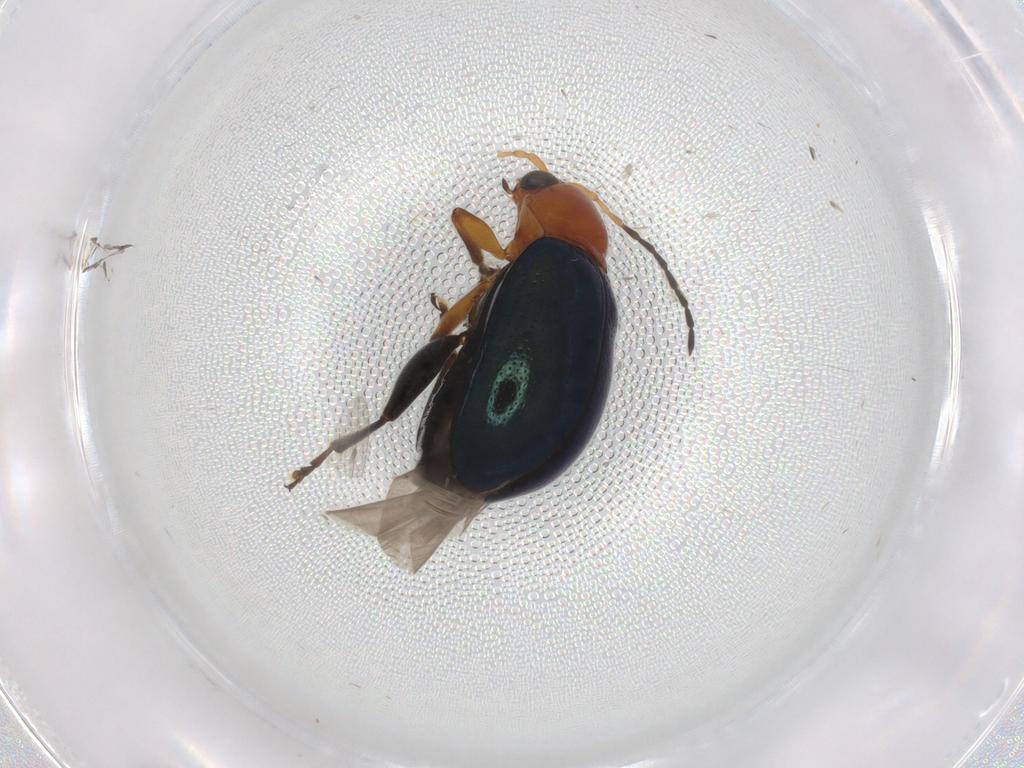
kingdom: Animalia
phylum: Arthropoda
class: Insecta
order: Coleoptera
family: Chrysomelidae
